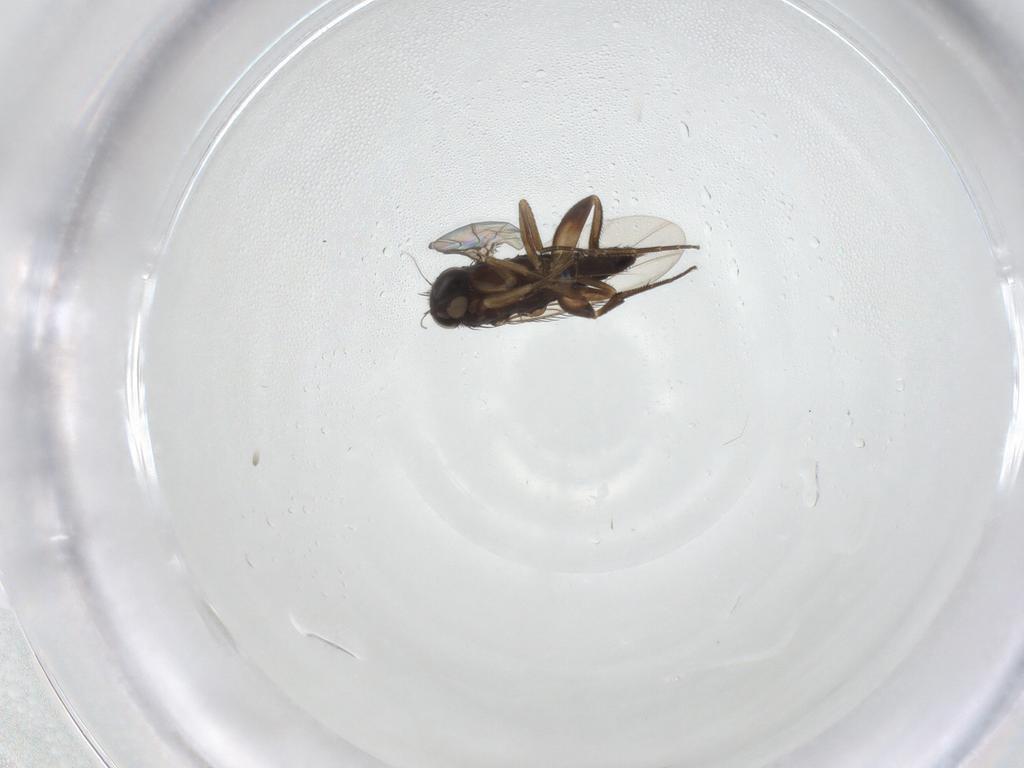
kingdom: Animalia
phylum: Arthropoda
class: Insecta
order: Diptera
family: Phoridae
